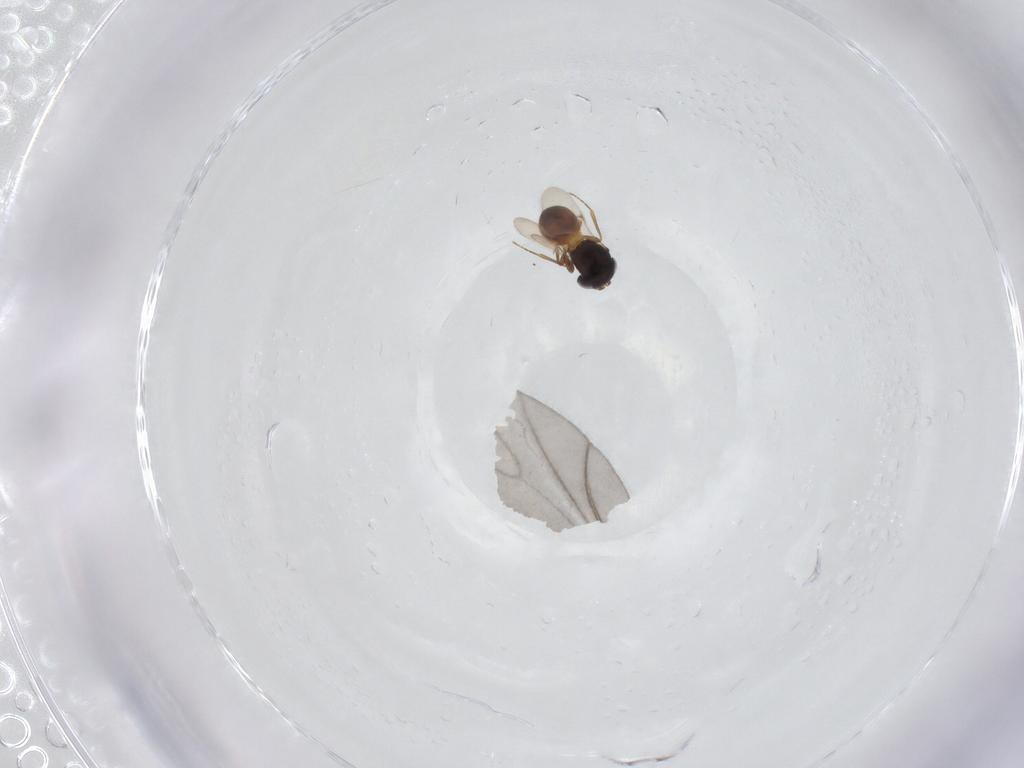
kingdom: Animalia
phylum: Arthropoda
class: Insecta
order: Hymenoptera
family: Scelionidae
